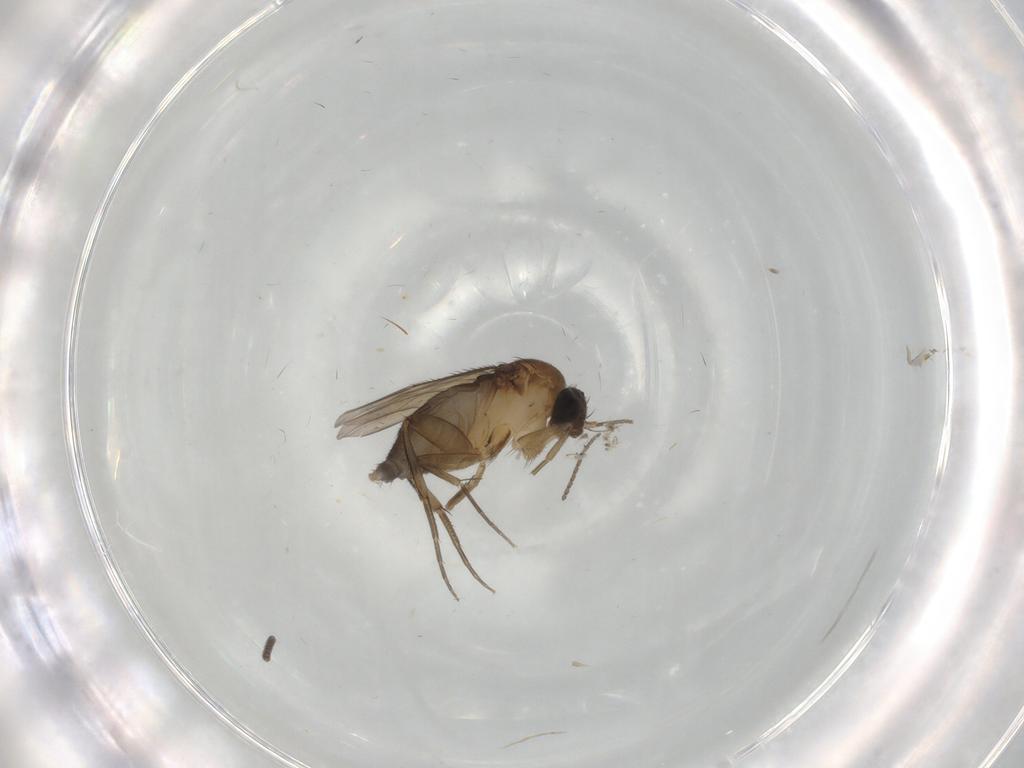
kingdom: Animalia
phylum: Arthropoda
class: Insecta
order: Diptera
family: Phoridae
